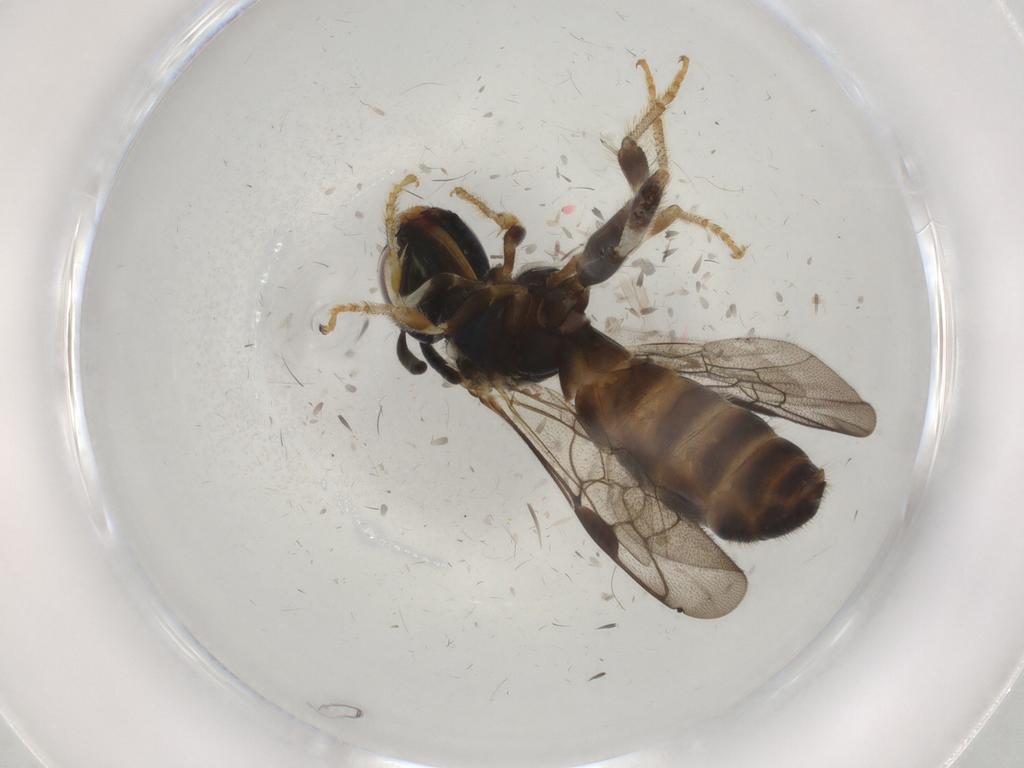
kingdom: Animalia
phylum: Arthropoda
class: Insecta
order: Hymenoptera
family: Apidae
